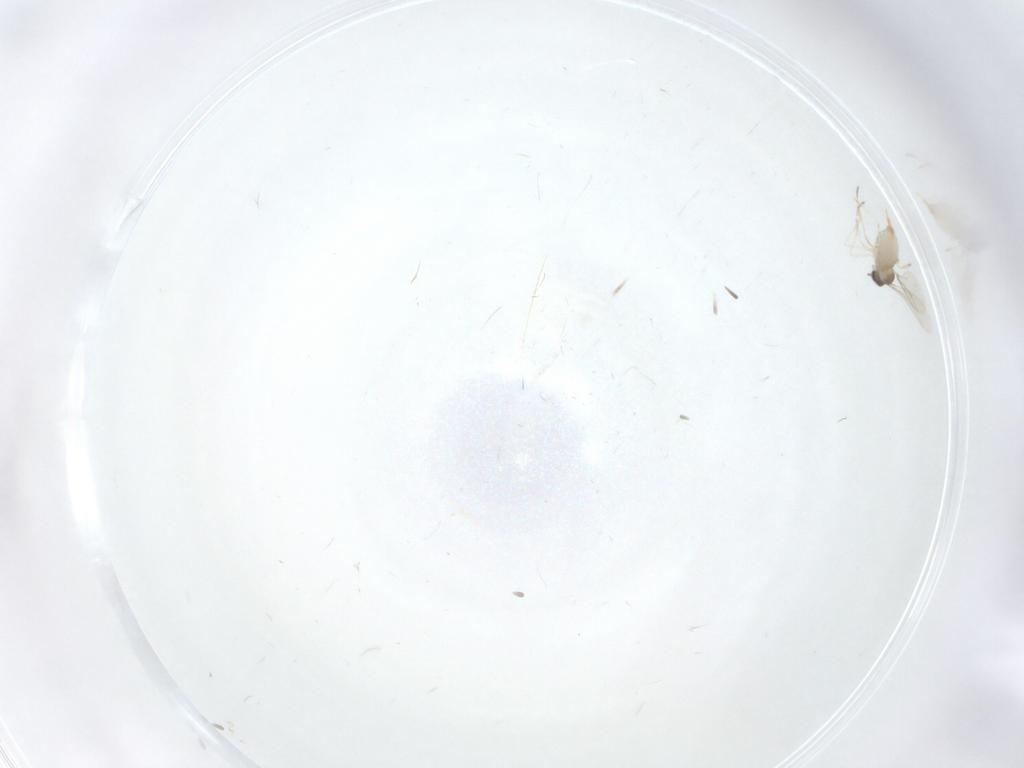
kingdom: Animalia
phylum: Arthropoda
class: Insecta
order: Diptera
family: Cecidomyiidae
